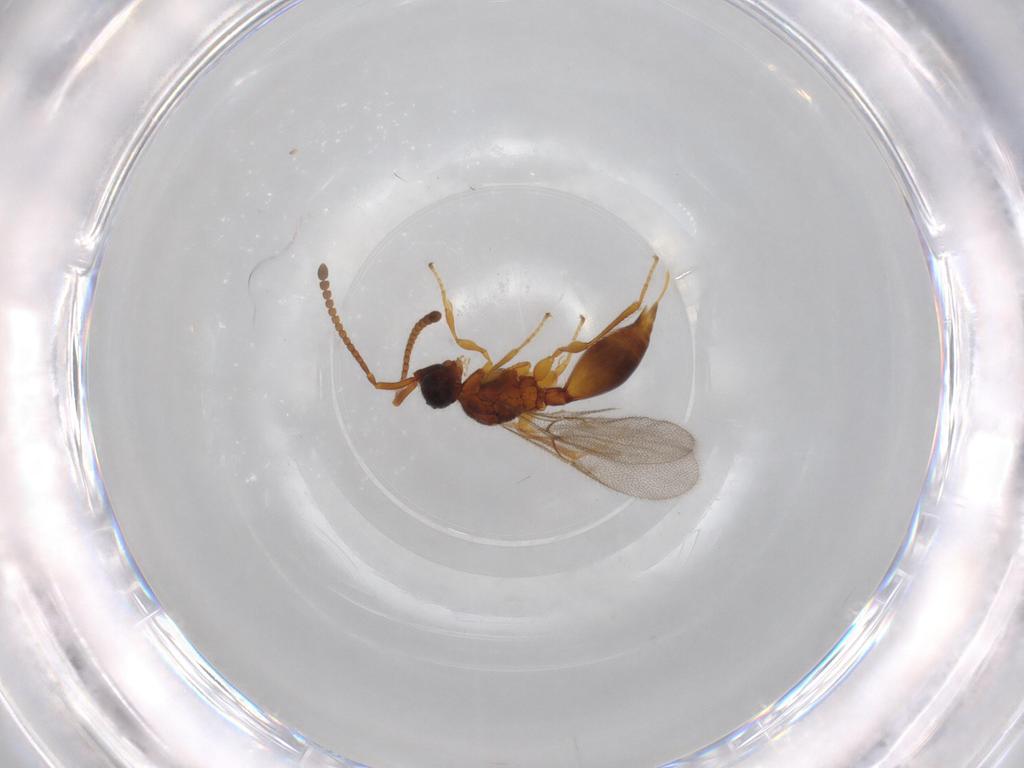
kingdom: Animalia
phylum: Arthropoda
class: Insecta
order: Hymenoptera
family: Diapriidae
